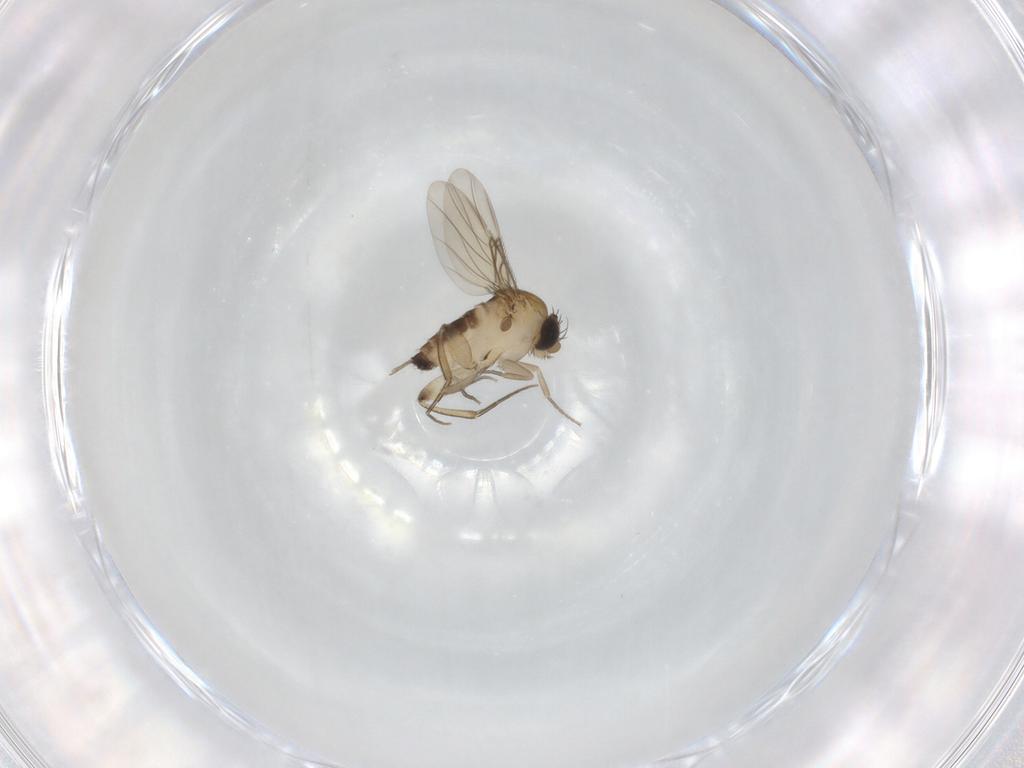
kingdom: Animalia
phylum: Arthropoda
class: Insecta
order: Diptera
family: Phoridae
